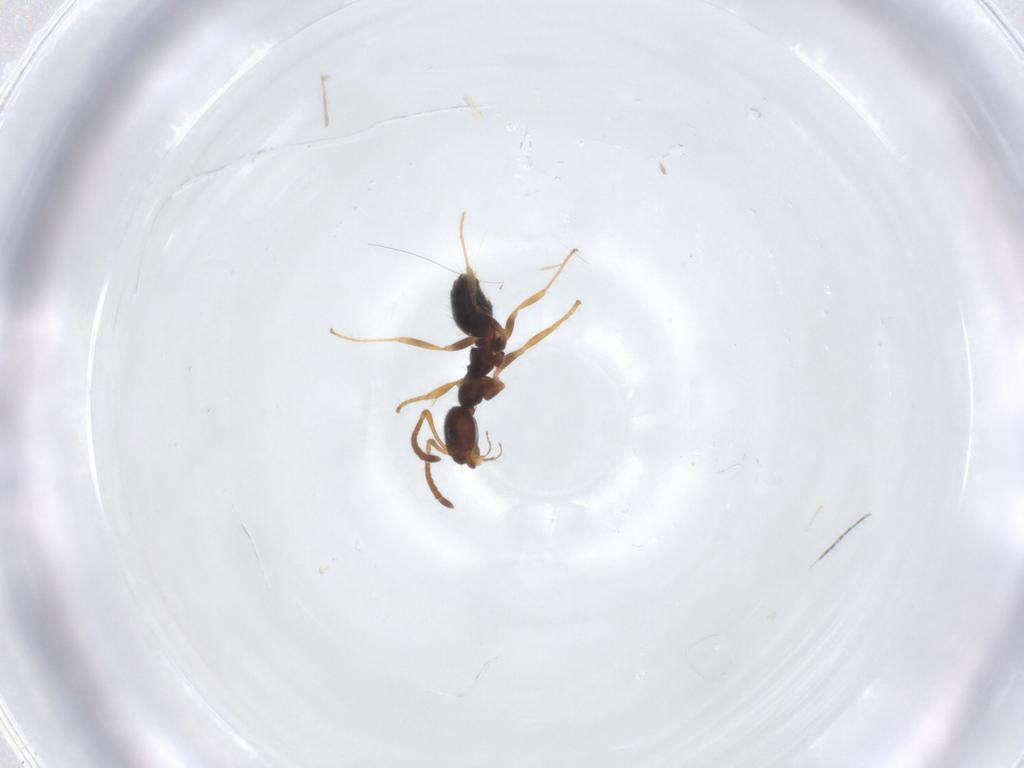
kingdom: Animalia
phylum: Arthropoda
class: Insecta
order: Hymenoptera
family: Formicidae
